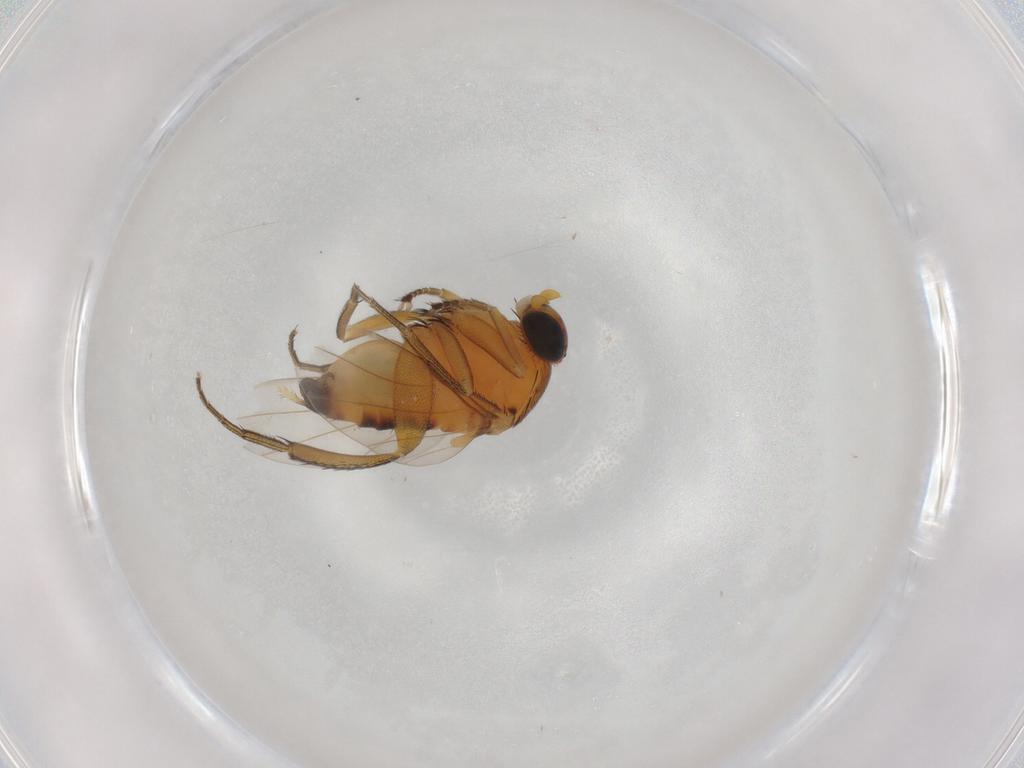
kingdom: Animalia
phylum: Arthropoda
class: Insecta
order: Diptera
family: Phoridae
